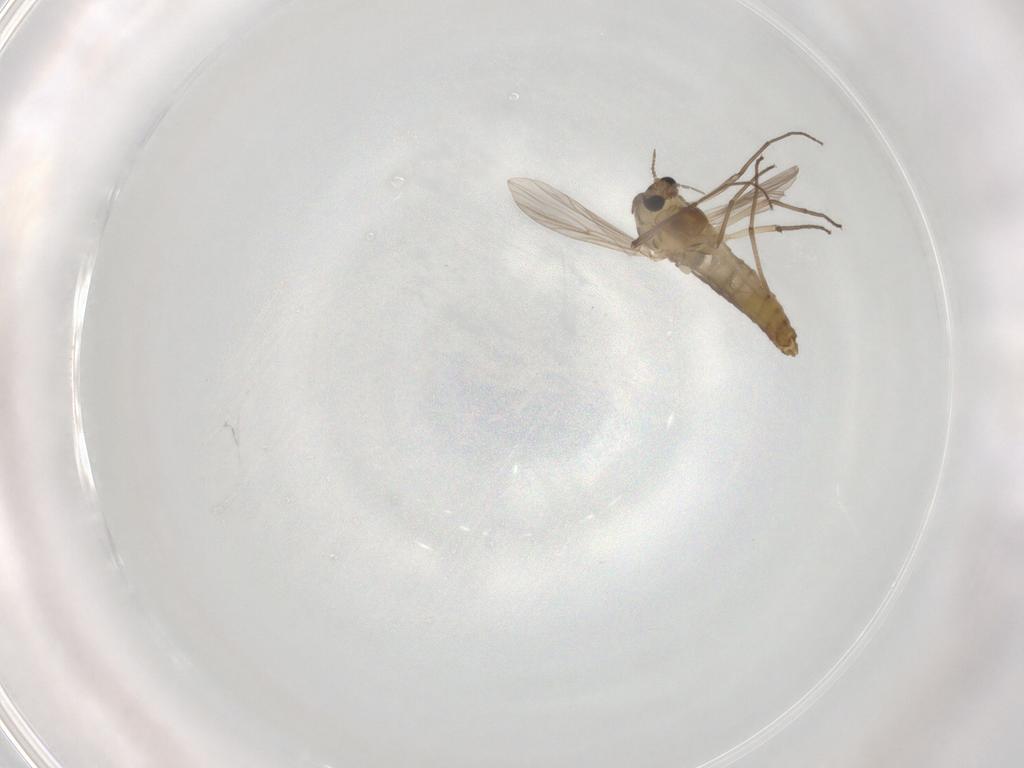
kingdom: Animalia
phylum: Arthropoda
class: Insecta
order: Diptera
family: Chironomidae
